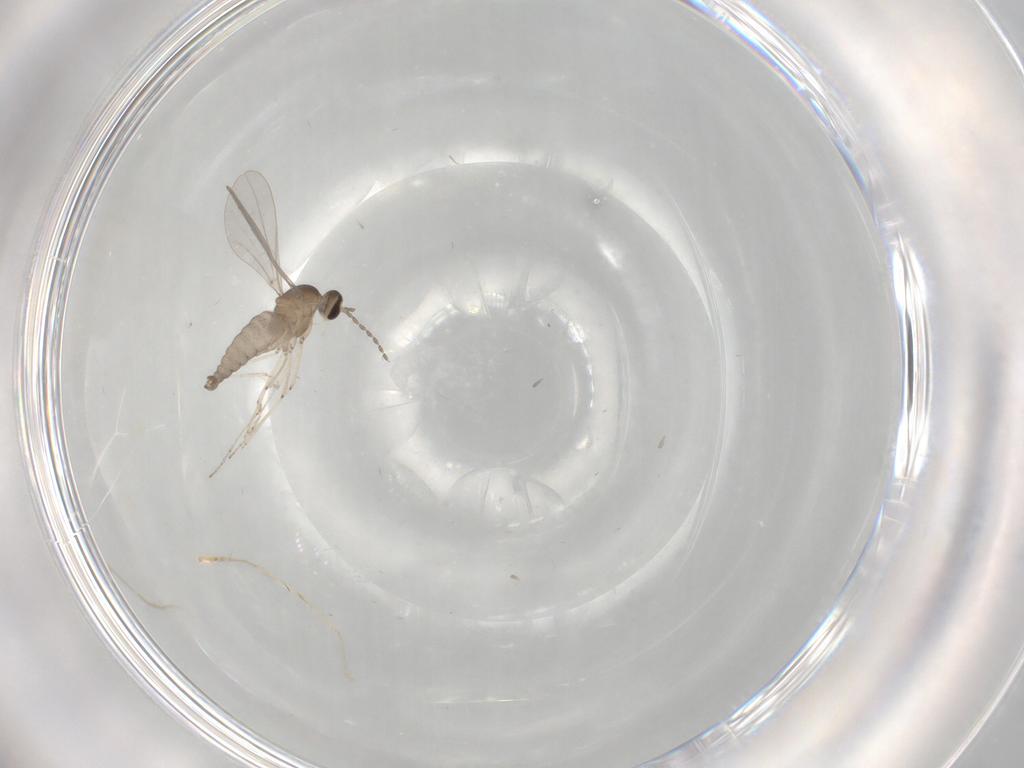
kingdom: Animalia
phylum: Arthropoda
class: Insecta
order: Diptera
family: Cecidomyiidae
